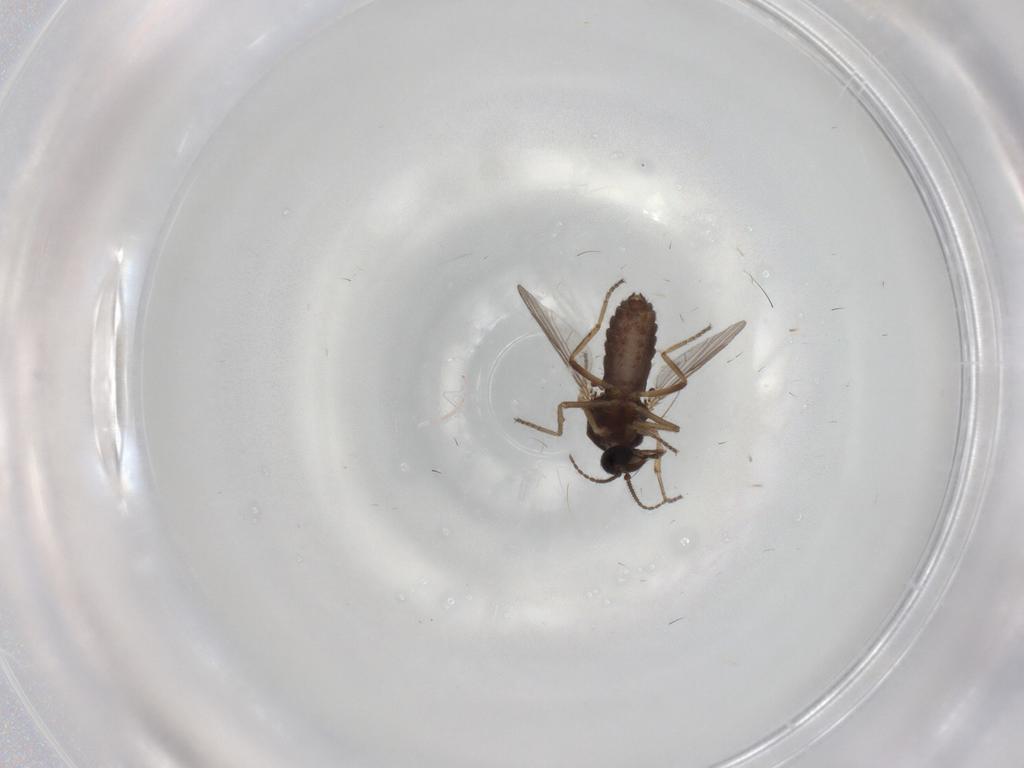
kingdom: Animalia
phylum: Arthropoda
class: Insecta
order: Diptera
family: Ceratopogonidae
